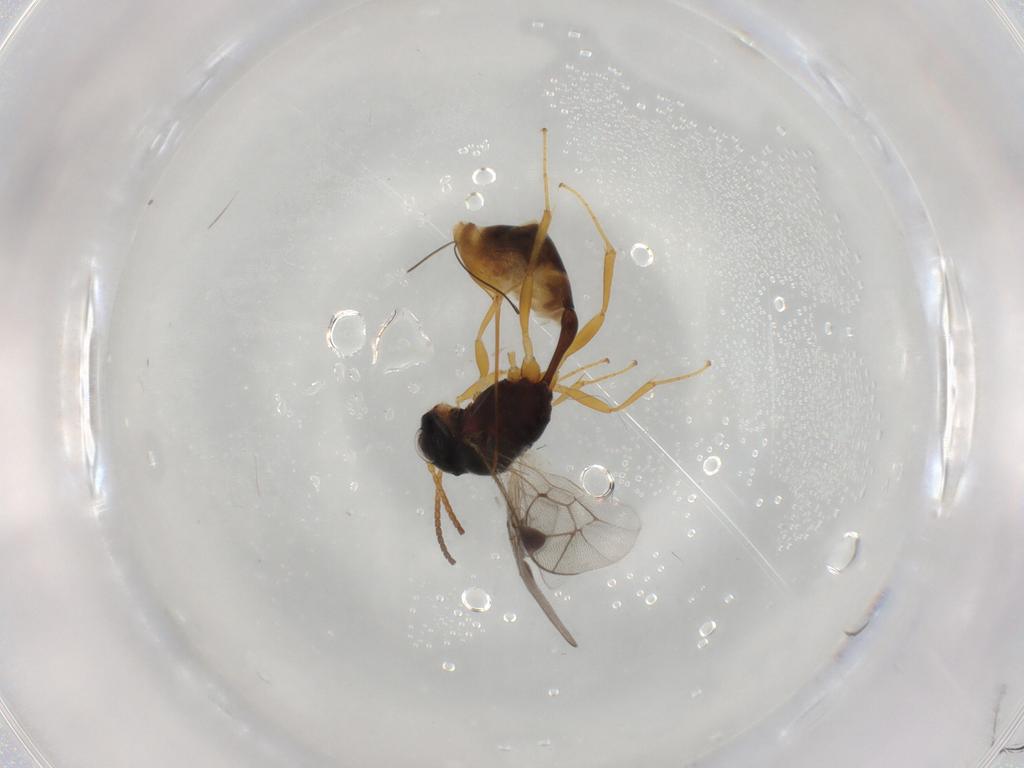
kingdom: Animalia
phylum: Arthropoda
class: Insecta
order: Hymenoptera
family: Ichneumonidae
